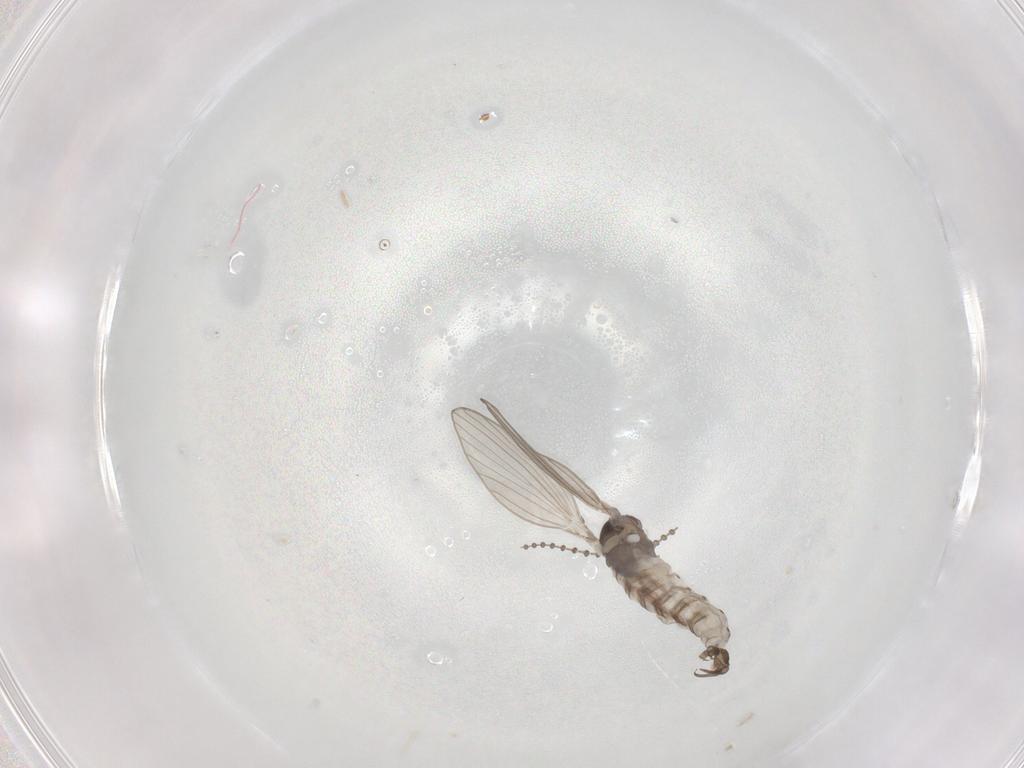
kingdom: Animalia
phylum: Arthropoda
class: Insecta
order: Diptera
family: Psychodidae
